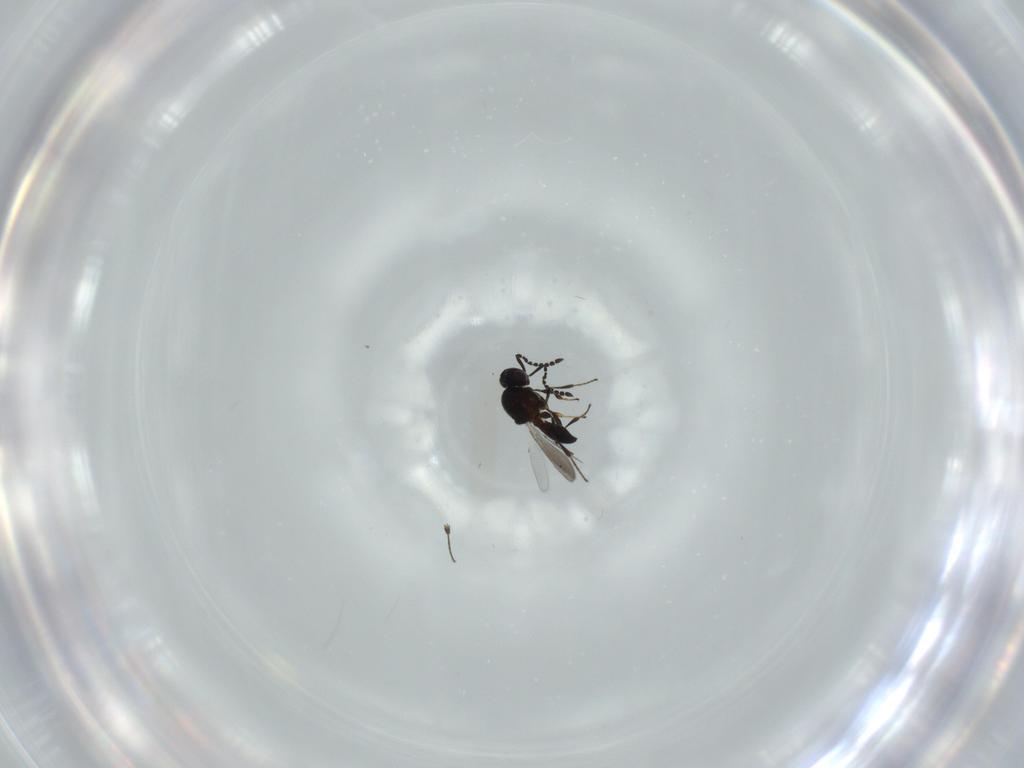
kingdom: Animalia
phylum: Arthropoda
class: Insecta
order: Diptera
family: Mythicomyiidae
